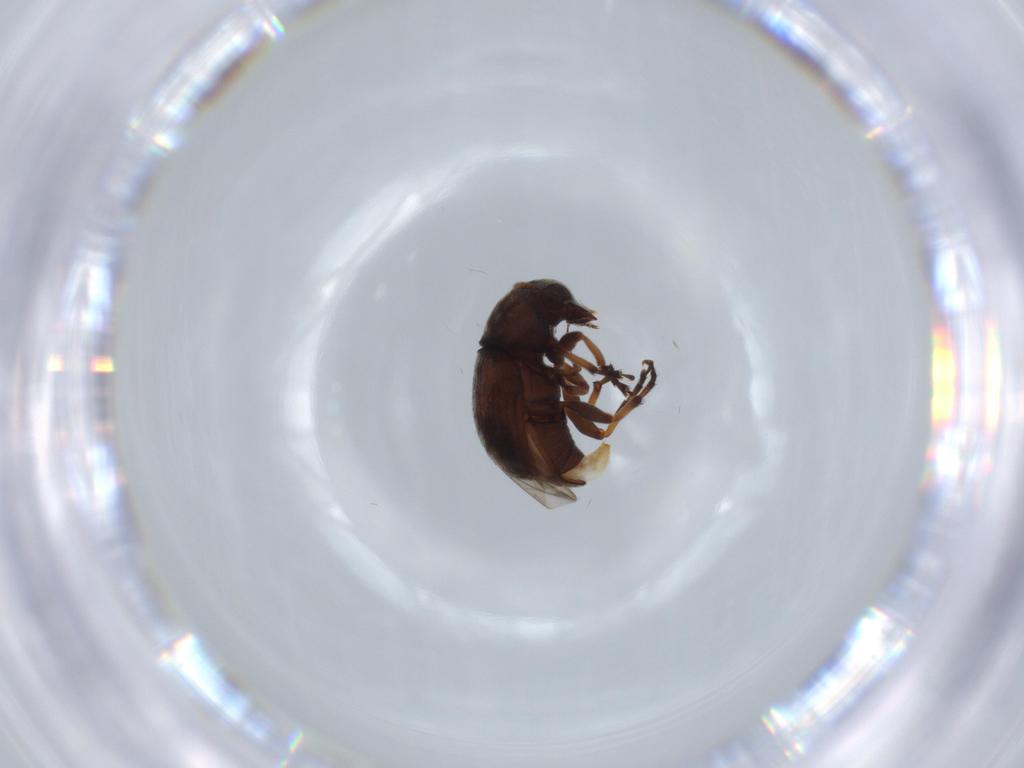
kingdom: Animalia
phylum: Arthropoda
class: Insecta
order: Coleoptera
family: Anthribidae
